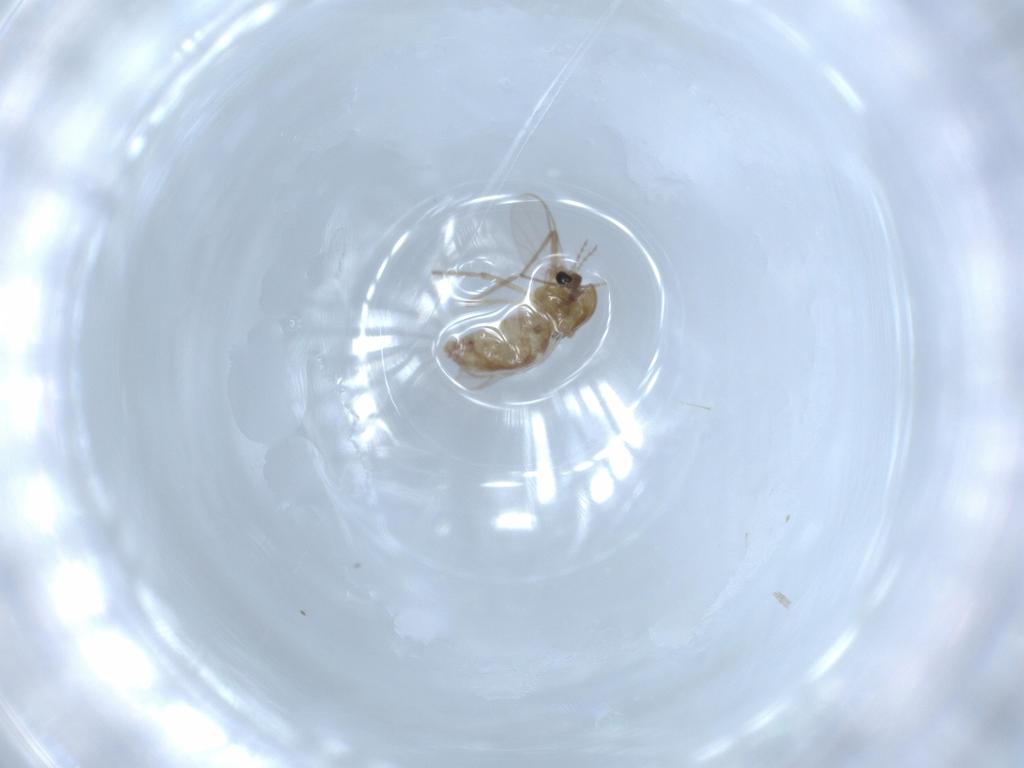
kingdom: Animalia
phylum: Arthropoda
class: Insecta
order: Diptera
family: Chironomidae
